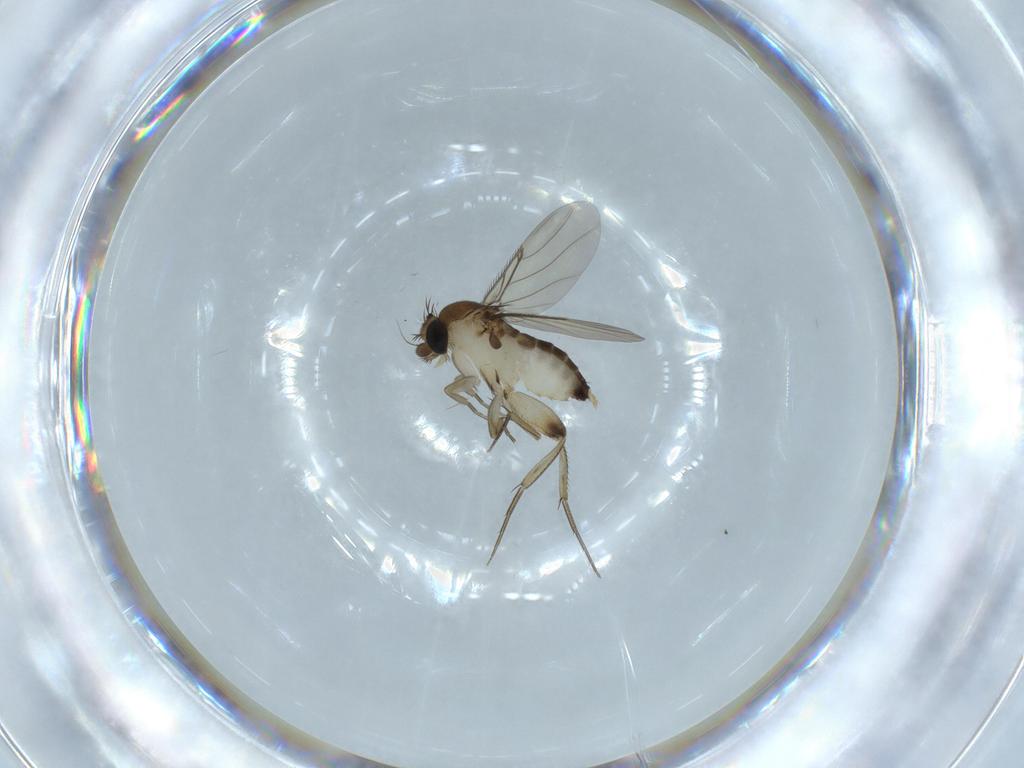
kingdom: Animalia
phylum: Arthropoda
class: Insecta
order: Diptera
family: Phoridae
